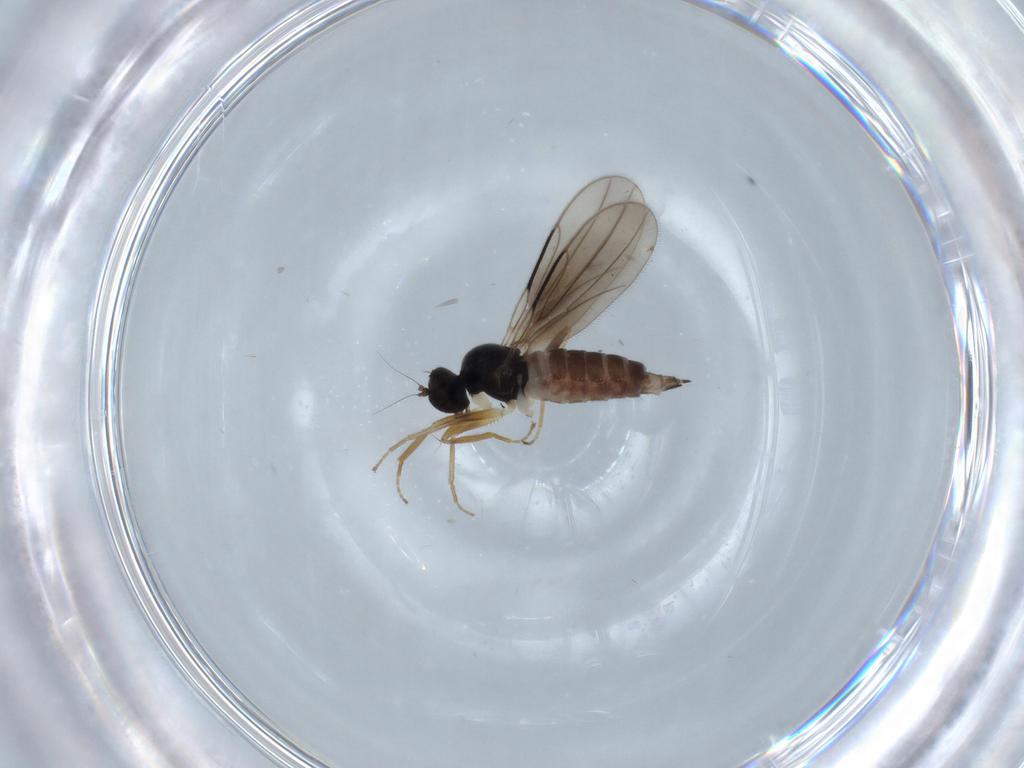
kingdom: Animalia
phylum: Arthropoda
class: Insecta
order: Diptera
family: Hybotidae
